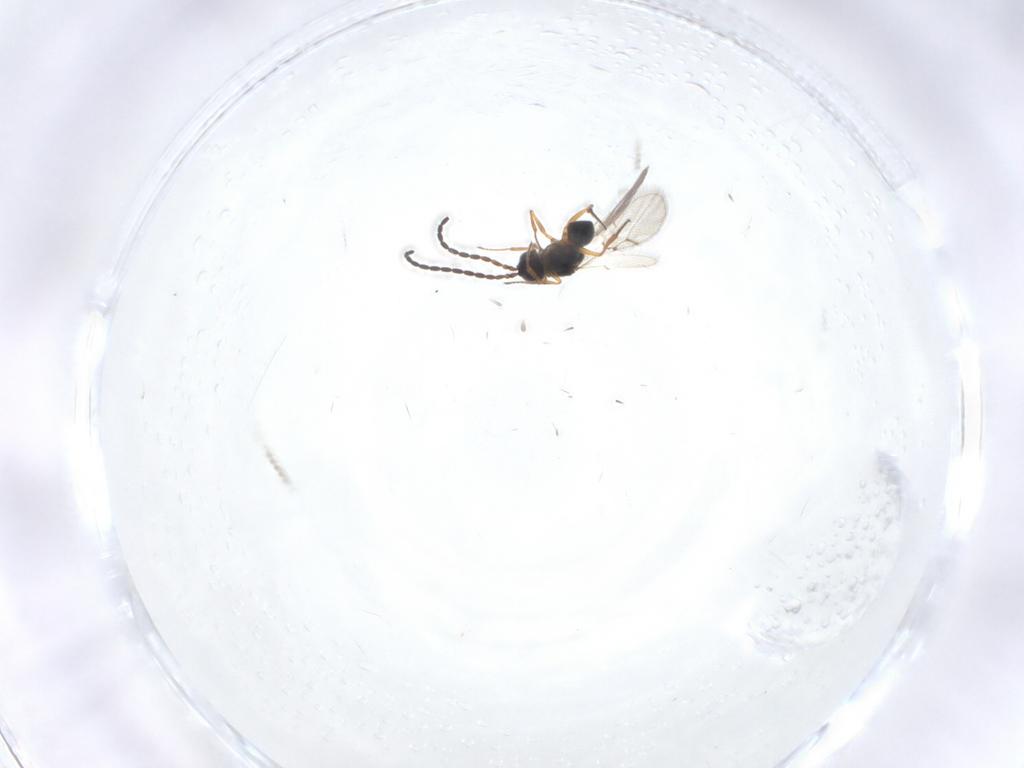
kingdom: Animalia
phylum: Arthropoda
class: Insecta
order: Hymenoptera
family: Figitidae
